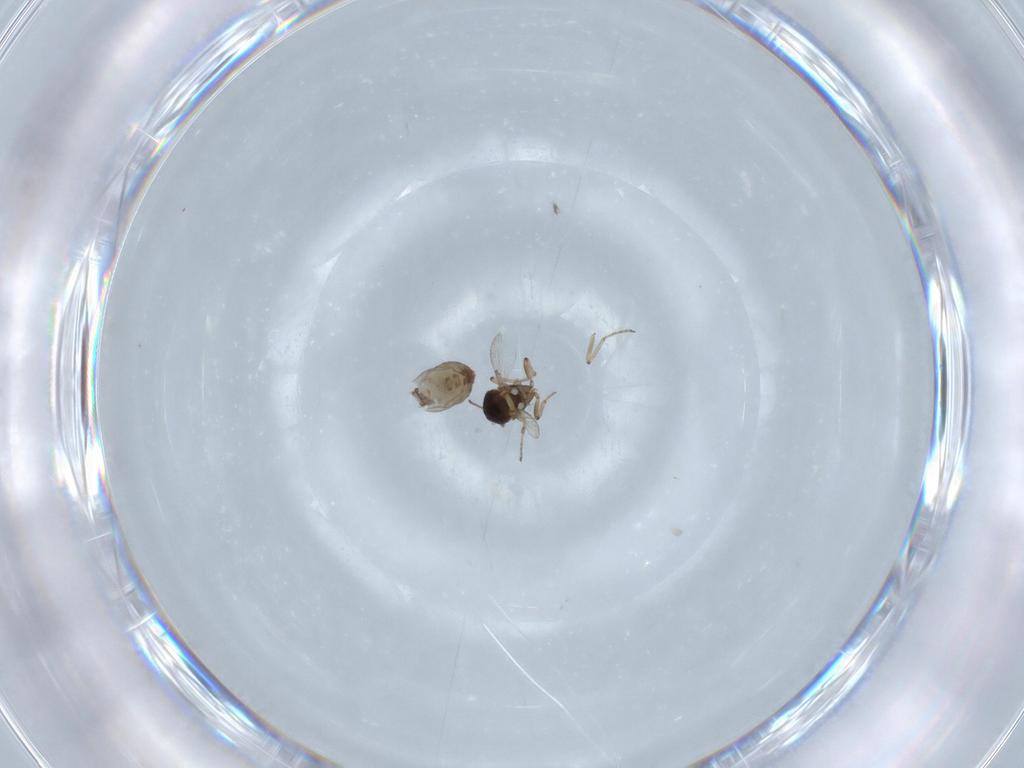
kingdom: Animalia
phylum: Arthropoda
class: Insecta
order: Diptera
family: Ceratopogonidae
